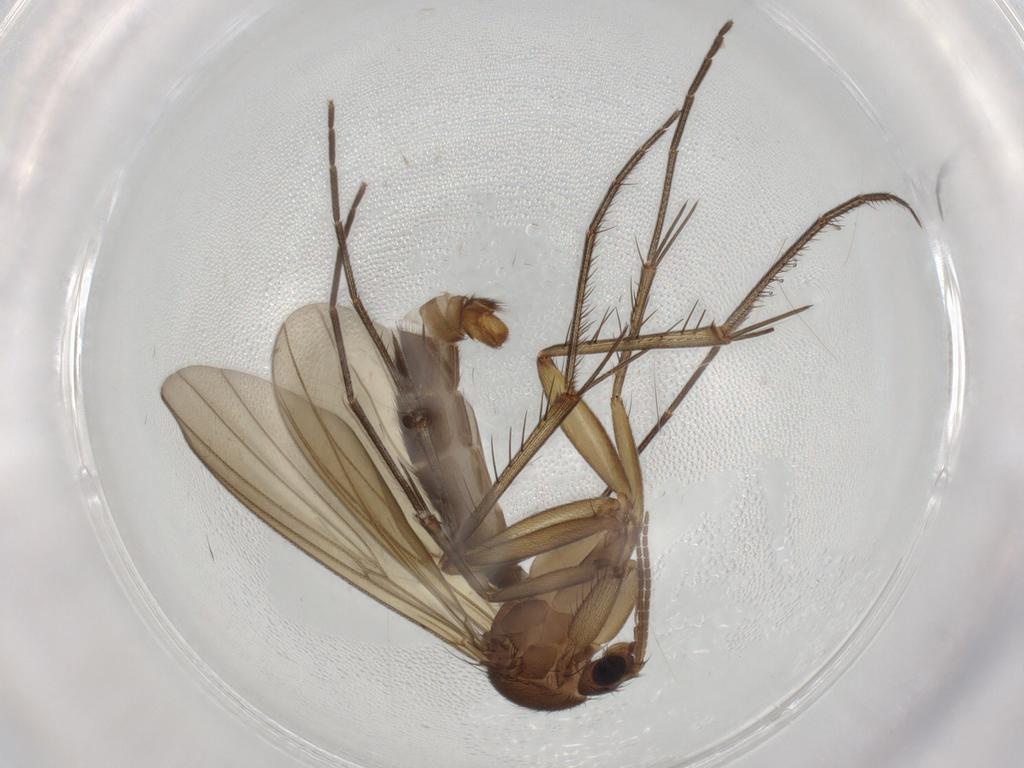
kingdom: Animalia
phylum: Arthropoda
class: Insecta
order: Diptera
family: Mycetophilidae
